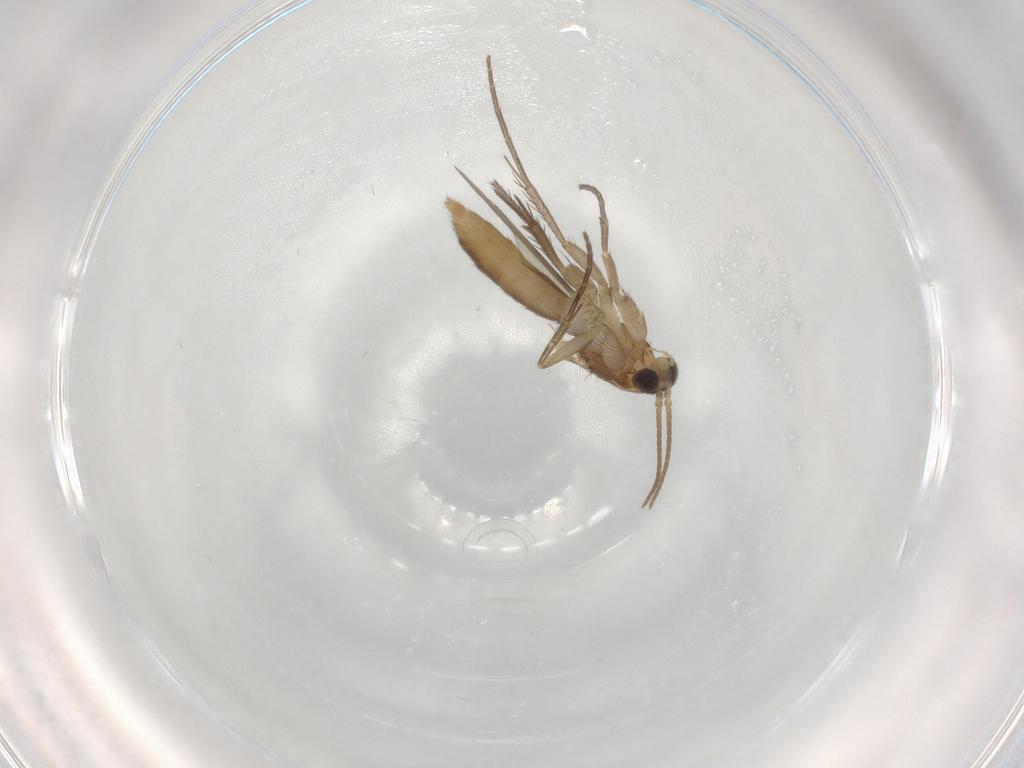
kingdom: Animalia
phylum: Arthropoda
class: Insecta
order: Diptera
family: Mycetophilidae
